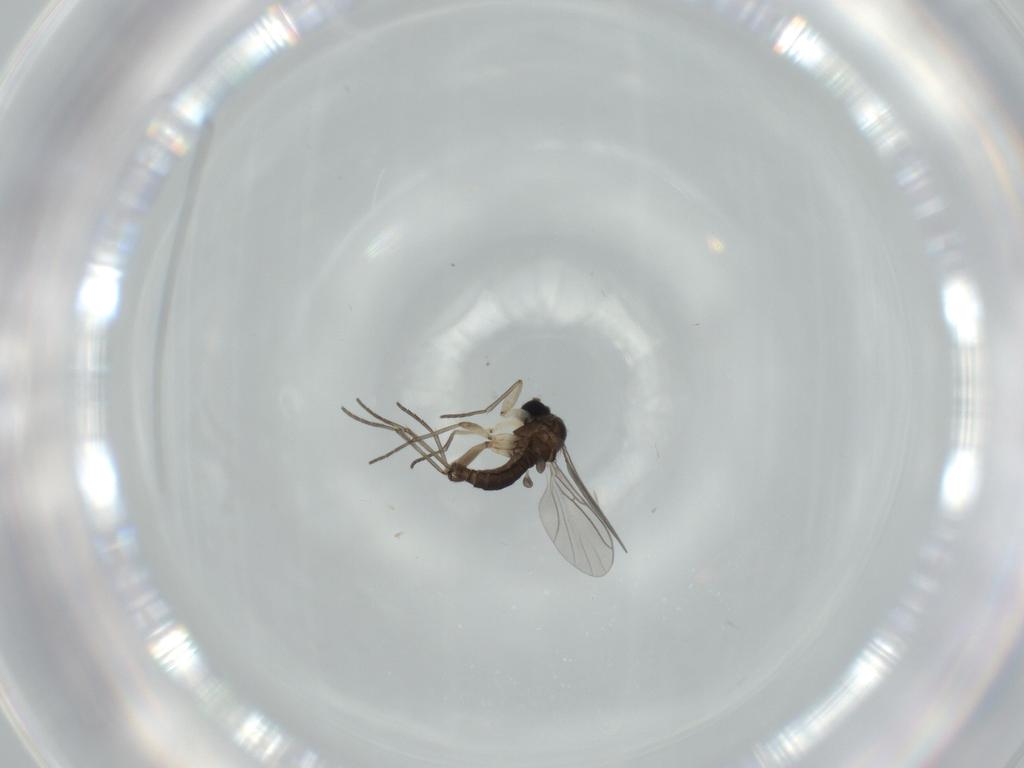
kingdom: Animalia
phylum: Arthropoda
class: Insecta
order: Diptera
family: Sciaridae
